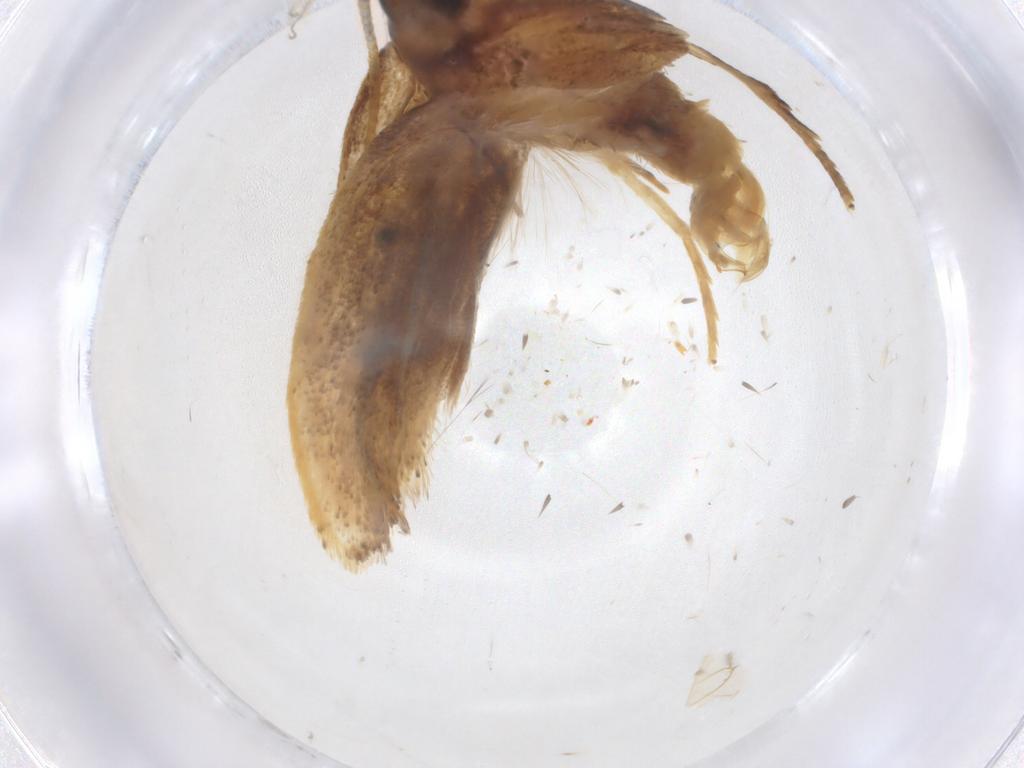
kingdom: Animalia
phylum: Arthropoda
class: Insecta
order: Lepidoptera
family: Lecithoceridae
